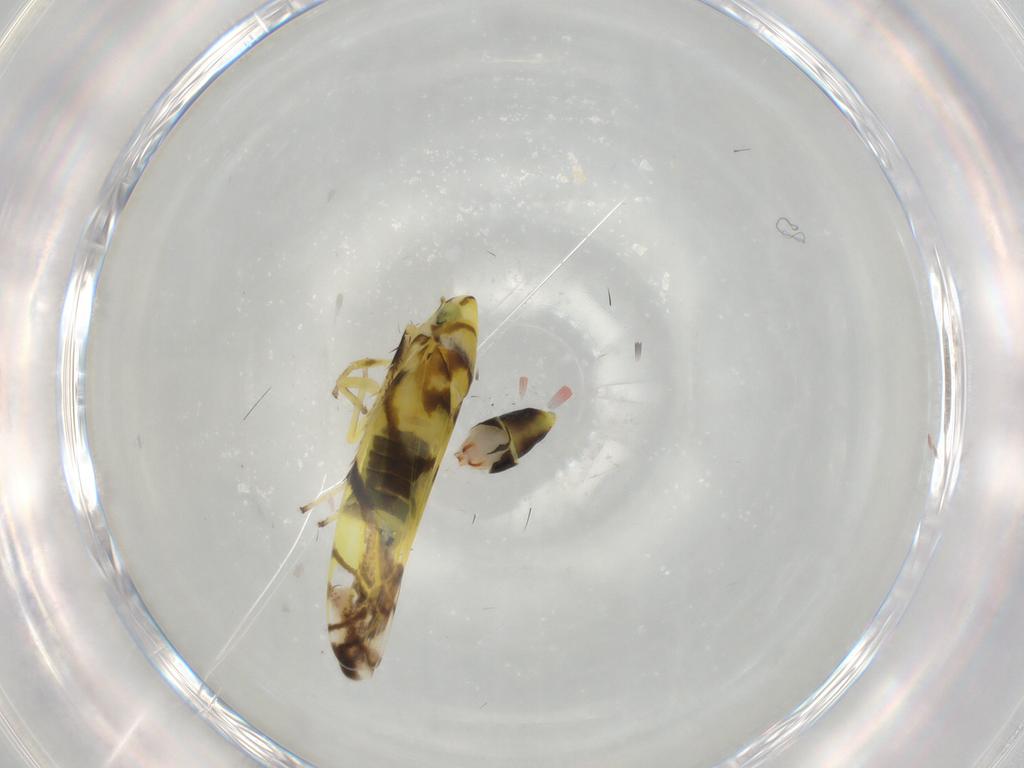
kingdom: Animalia
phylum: Arthropoda
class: Insecta
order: Hemiptera
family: Cicadellidae
